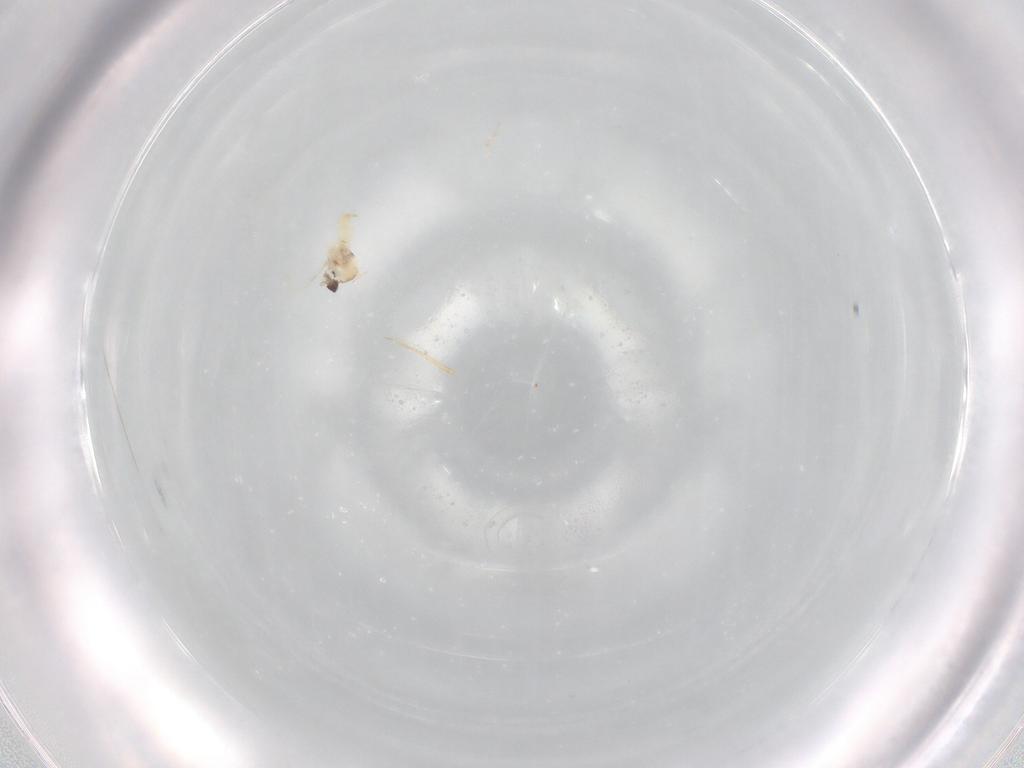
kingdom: Animalia
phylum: Arthropoda
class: Insecta
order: Diptera
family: Cecidomyiidae
